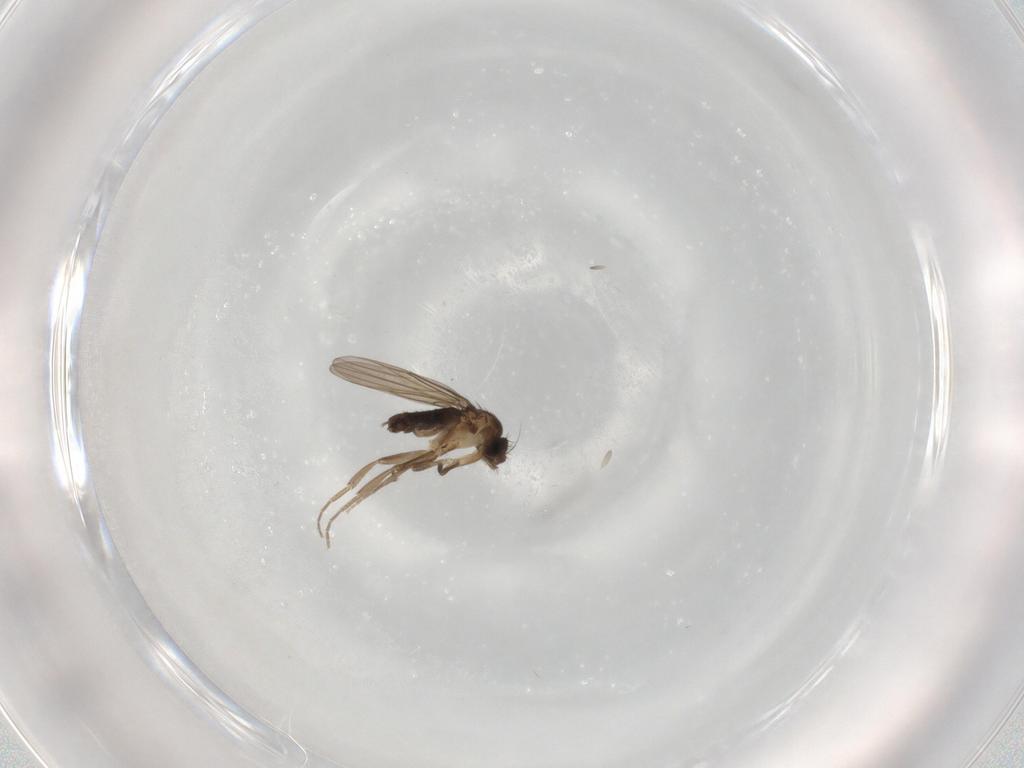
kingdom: Animalia
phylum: Arthropoda
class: Insecta
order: Diptera
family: Phoridae
